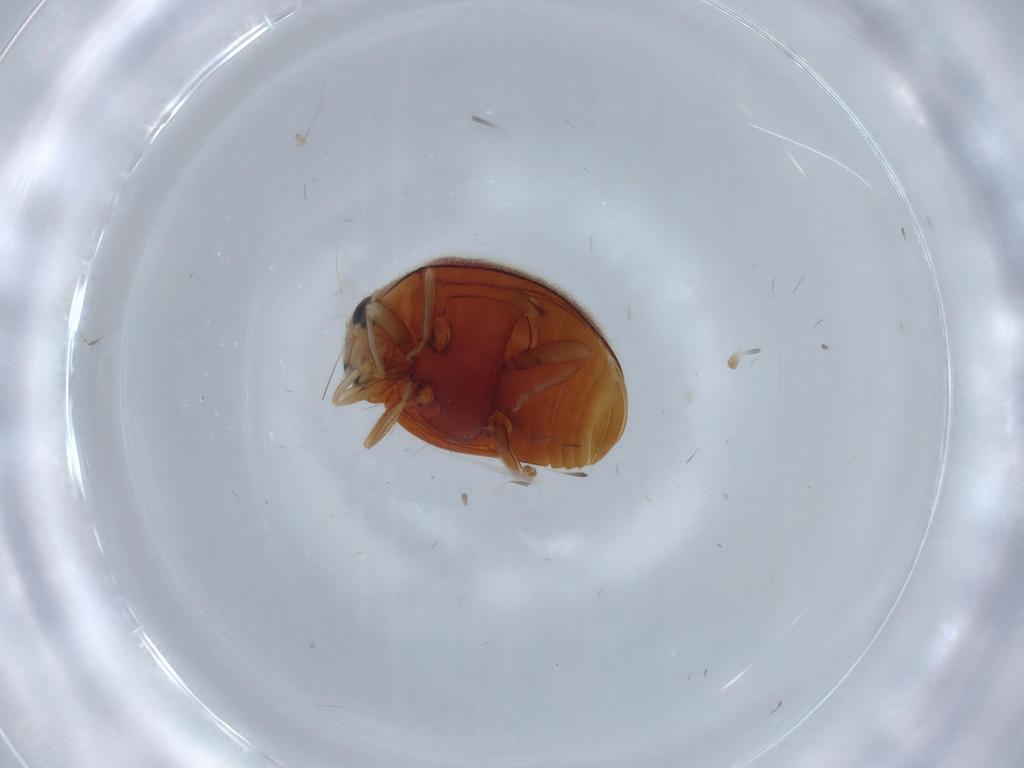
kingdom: Animalia
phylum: Arthropoda
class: Insecta
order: Coleoptera
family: Coccinellidae
